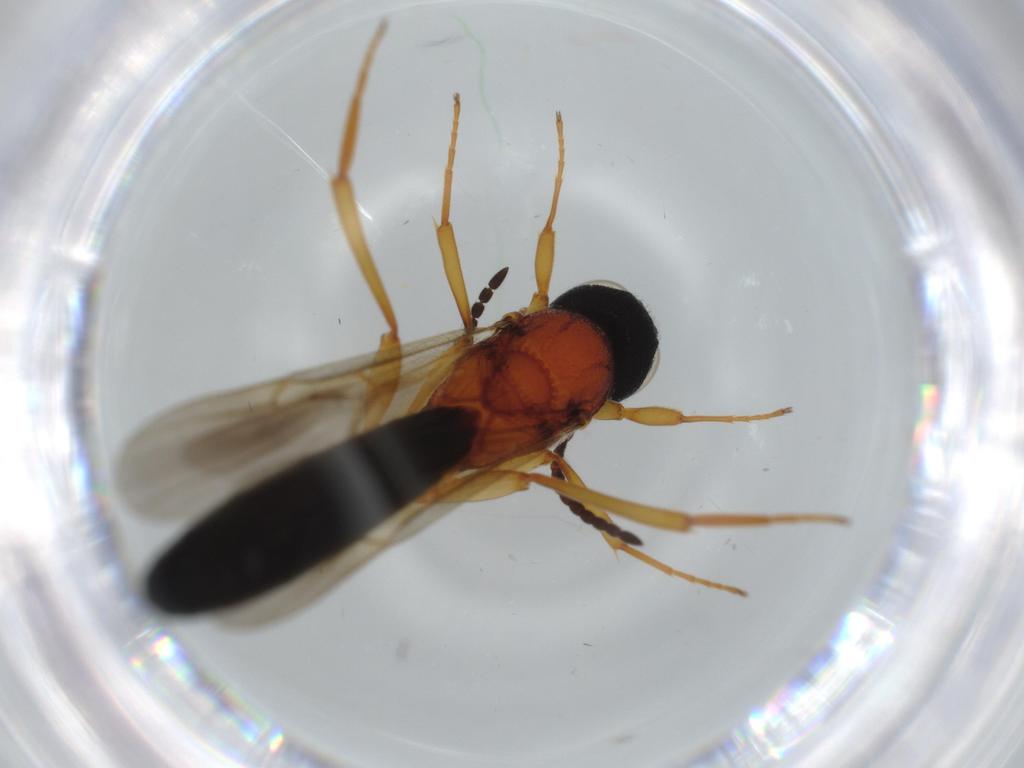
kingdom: Animalia
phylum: Arthropoda
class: Insecta
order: Hymenoptera
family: Scelionidae
